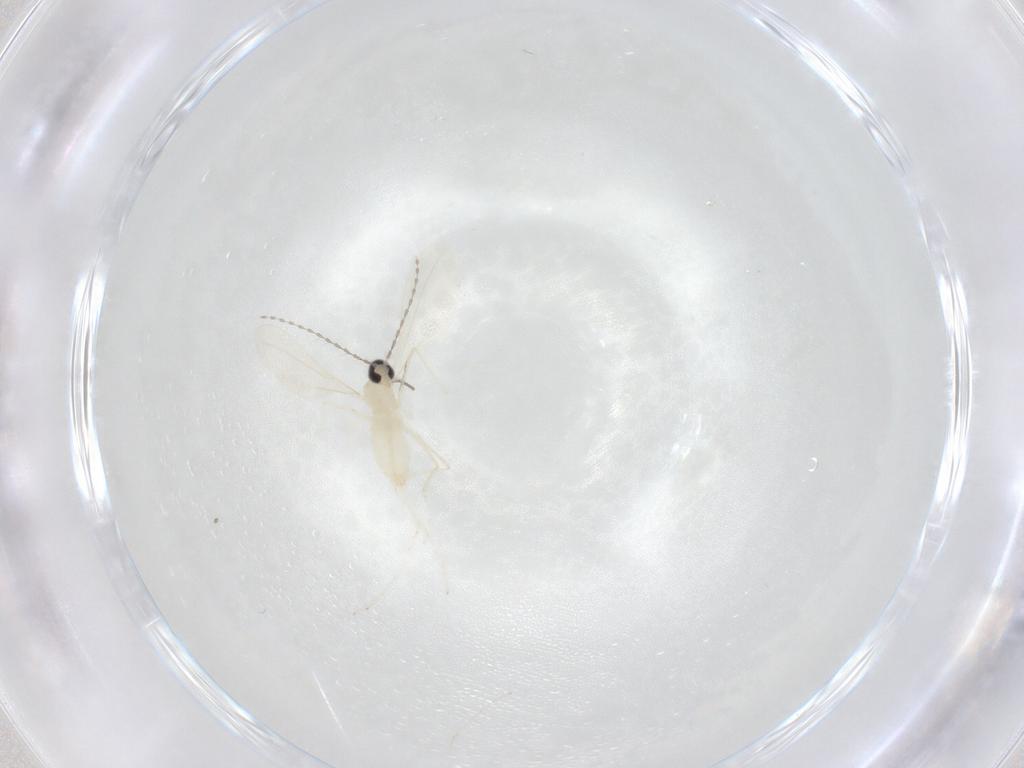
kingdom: Animalia
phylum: Arthropoda
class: Insecta
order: Diptera
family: Cecidomyiidae
